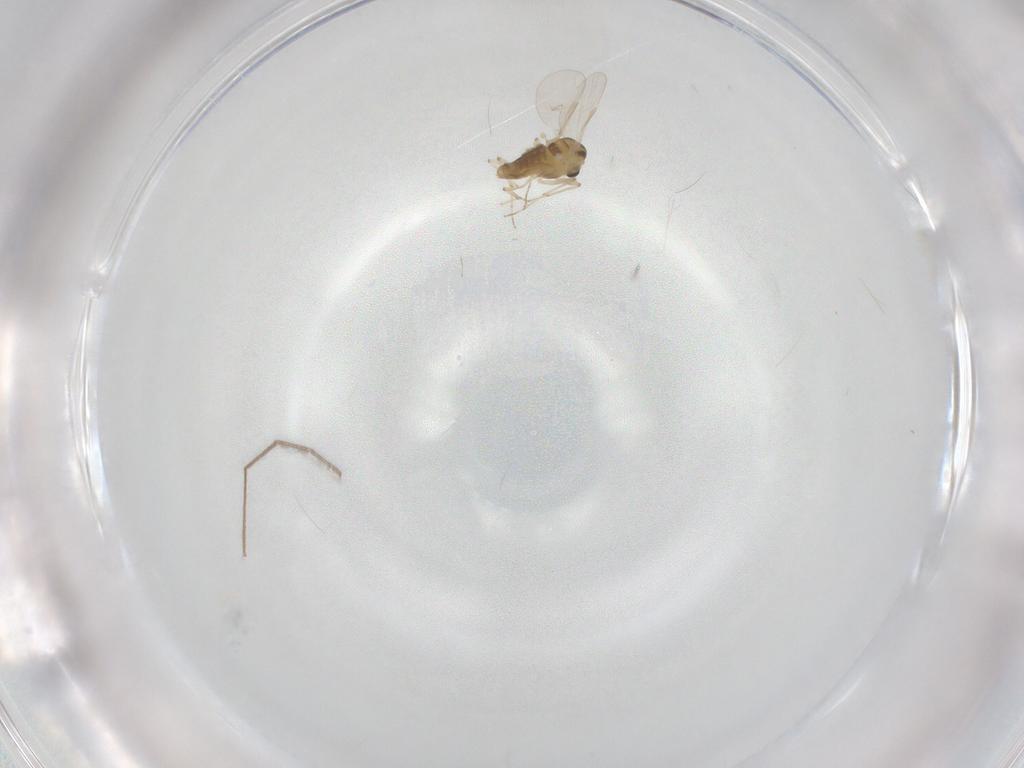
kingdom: Animalia
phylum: Arthropoda
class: Insecta
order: Diptera
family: Chironomidae
